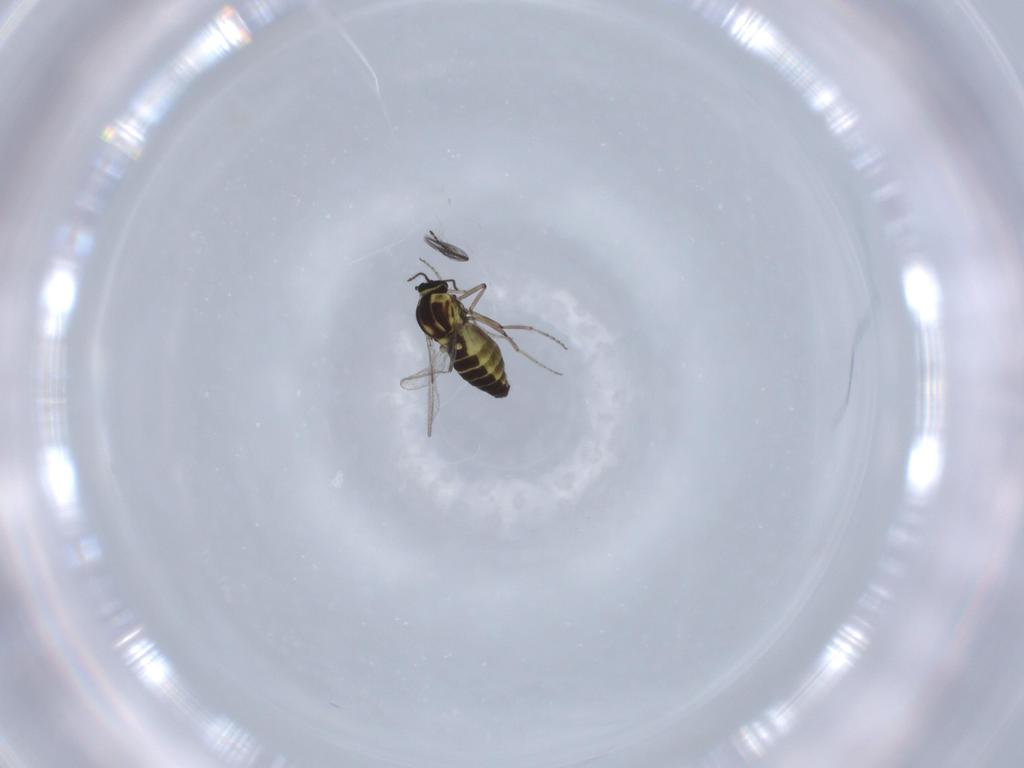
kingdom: Animalia
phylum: Arthropoda
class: Insecta
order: Diptera
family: Ceratopogonidae
